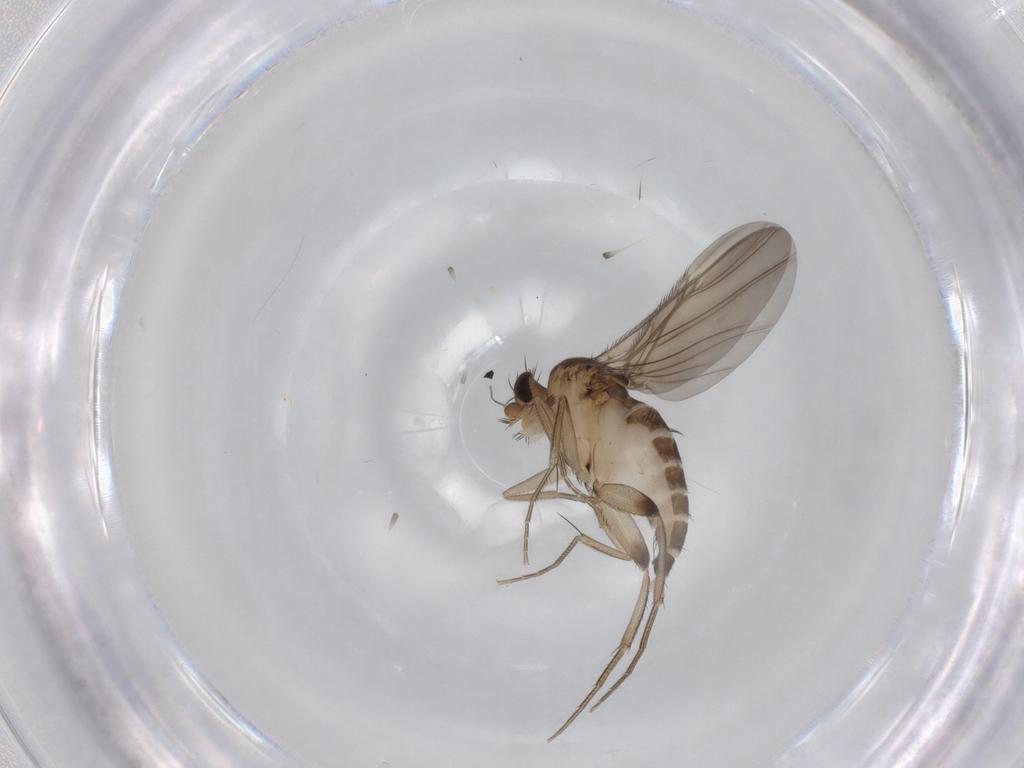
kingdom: Animalia
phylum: Arthropoda
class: Insecta
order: Diptera
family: Phoridae
